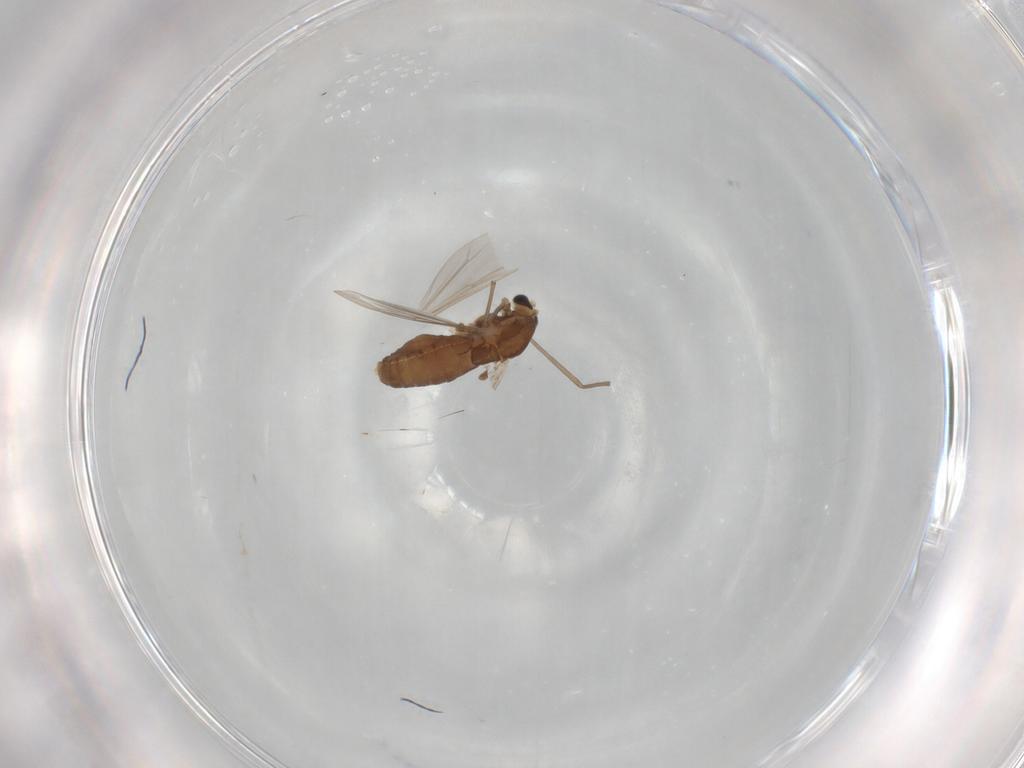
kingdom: Animalia
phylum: Arthropoda
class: Insecta
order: Diptera
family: Chironomidae
